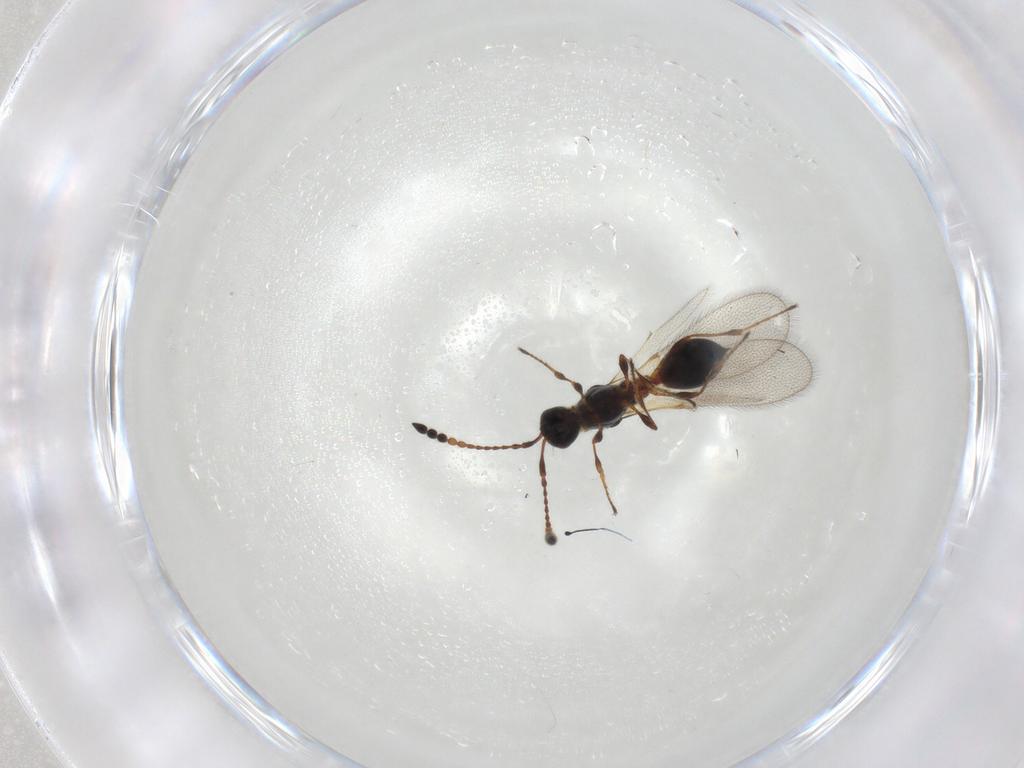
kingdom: Animalia
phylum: Arthropoda
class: Insecta
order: Hymenoptera
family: Diapriidae
